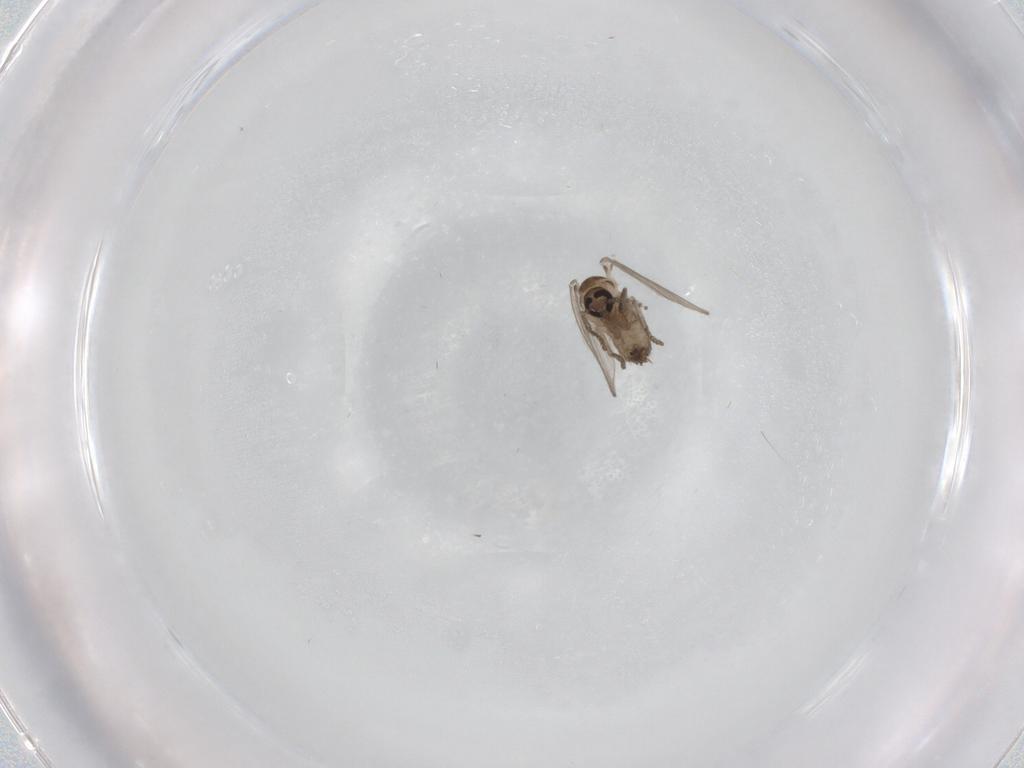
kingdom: Animalia
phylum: Arthropoda
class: Insecta
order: Diptera
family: Psychodidae
